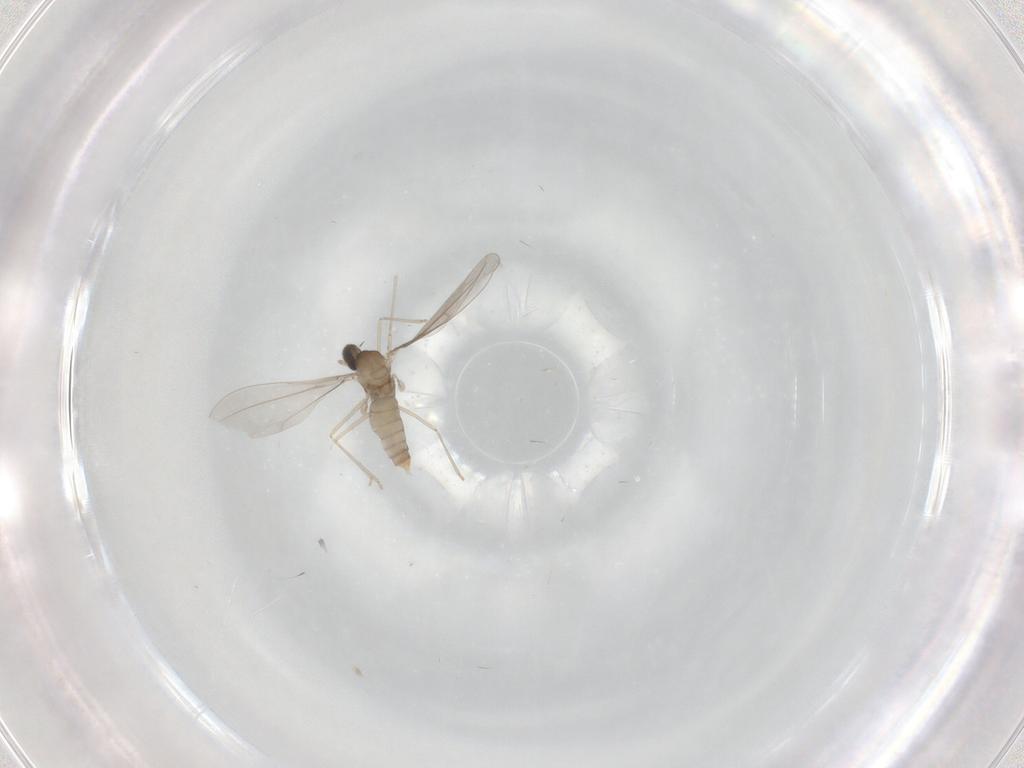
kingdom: Animalia
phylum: Arthropoda
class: Insecta
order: Diptera
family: Cecidomyiidae
